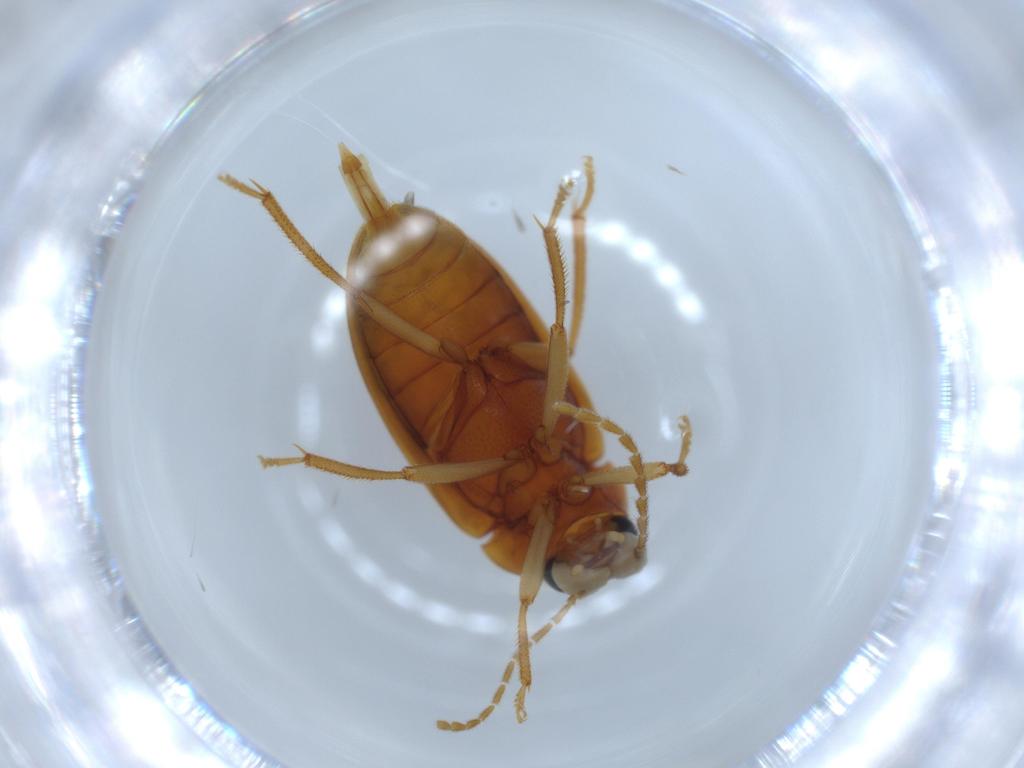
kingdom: Animalia
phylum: Arthropoda
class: Insecta
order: Coleoptera
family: Ptilodactylidae
